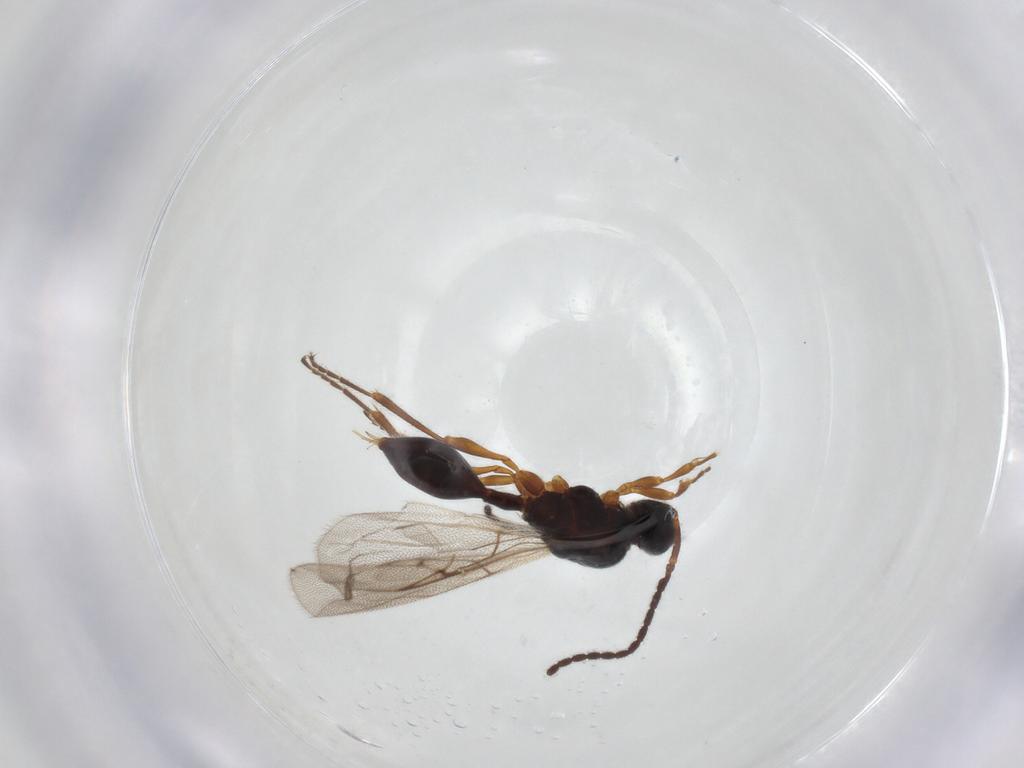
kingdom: Animalia
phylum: Arthropoda
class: Insecta
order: Hymenoptera
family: Diapriidae
